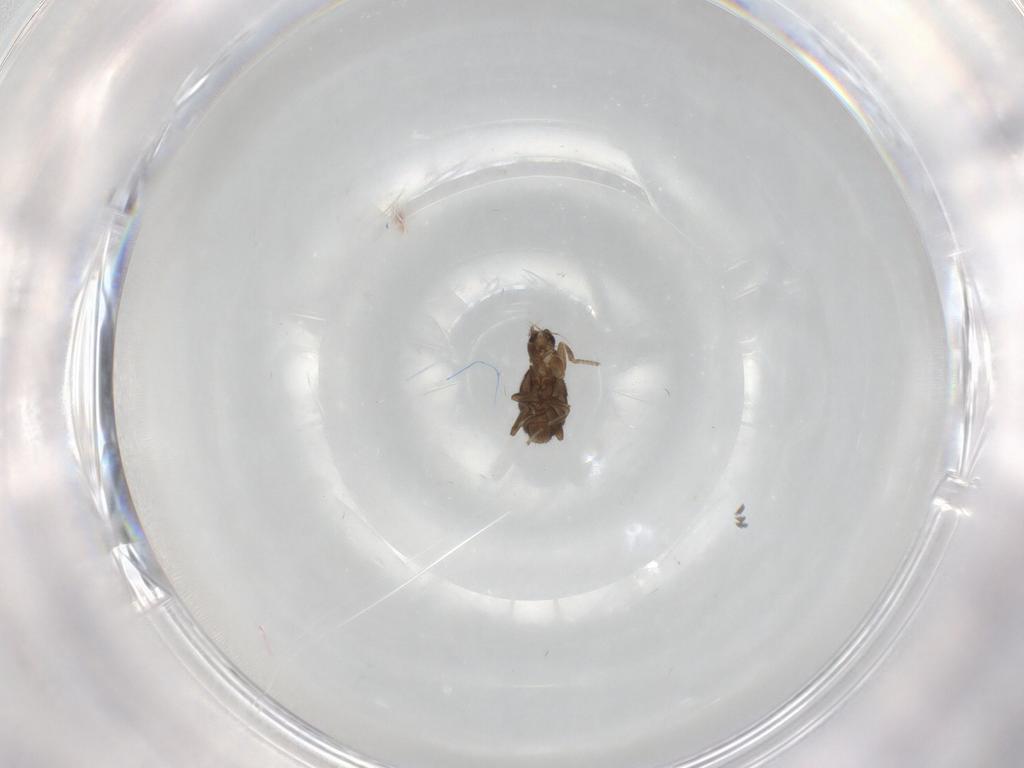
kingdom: Animalia
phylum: Arthropoda
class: Insecta
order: Diptera
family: Phoridae
